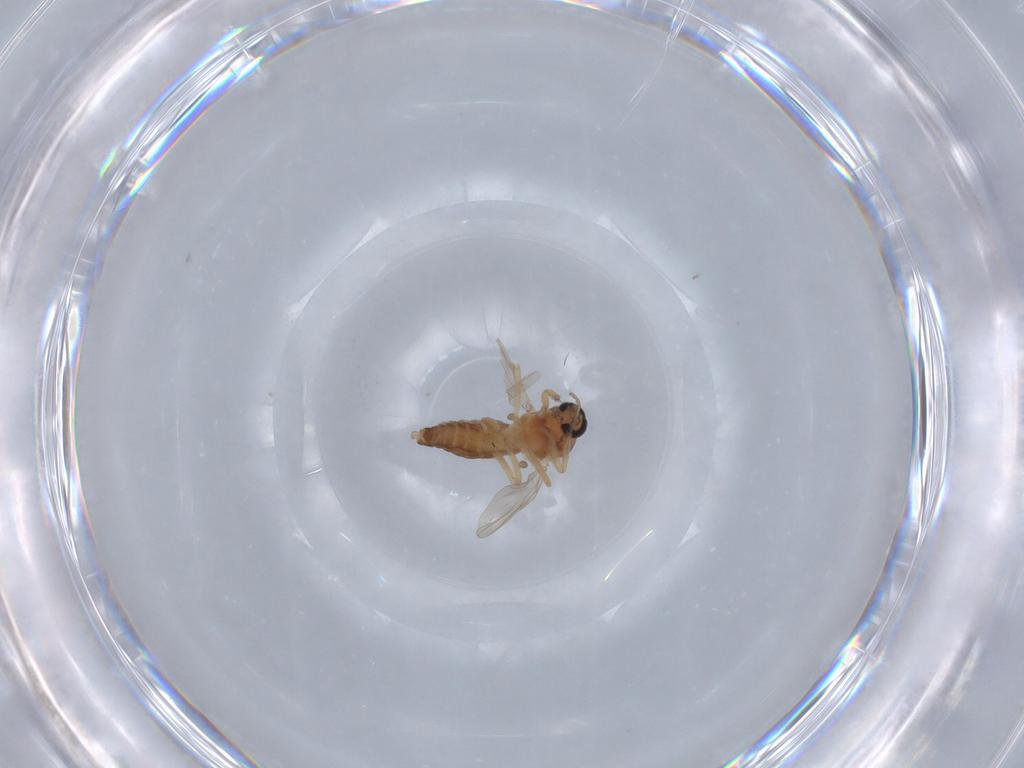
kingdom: Animalia
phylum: Arthropoda
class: Insecta
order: Diptera
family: Ceratopogonidae
